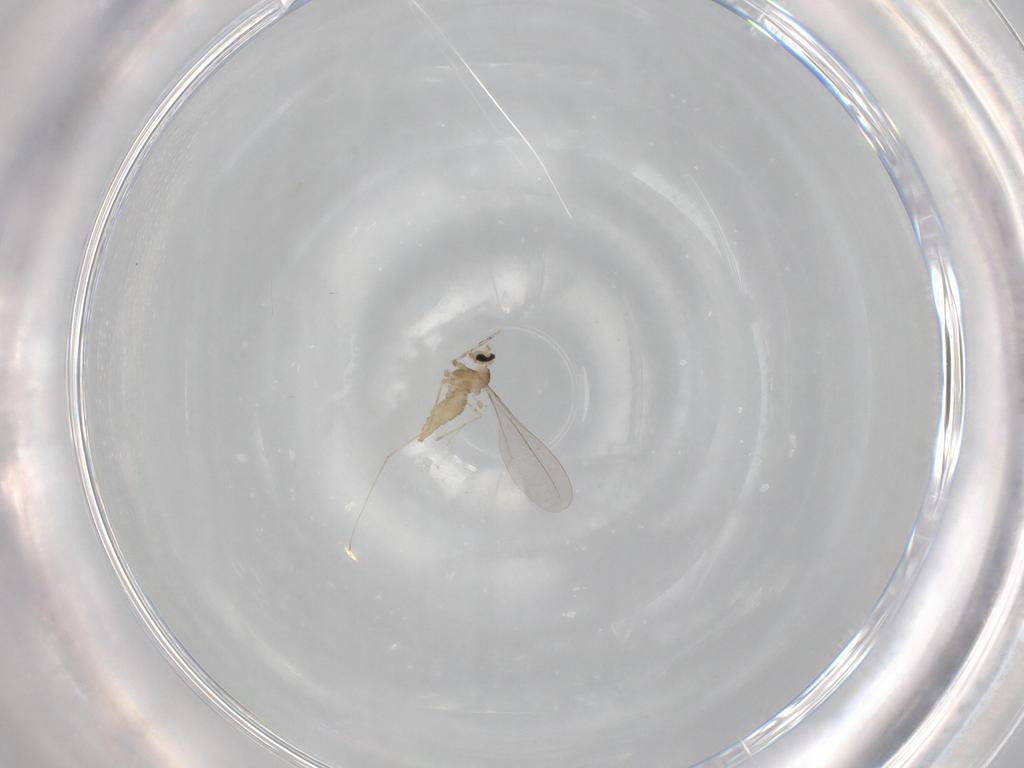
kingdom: Animalia
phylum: Arthropoda
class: Insecta
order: Diptera
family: Cecidomyiidae
